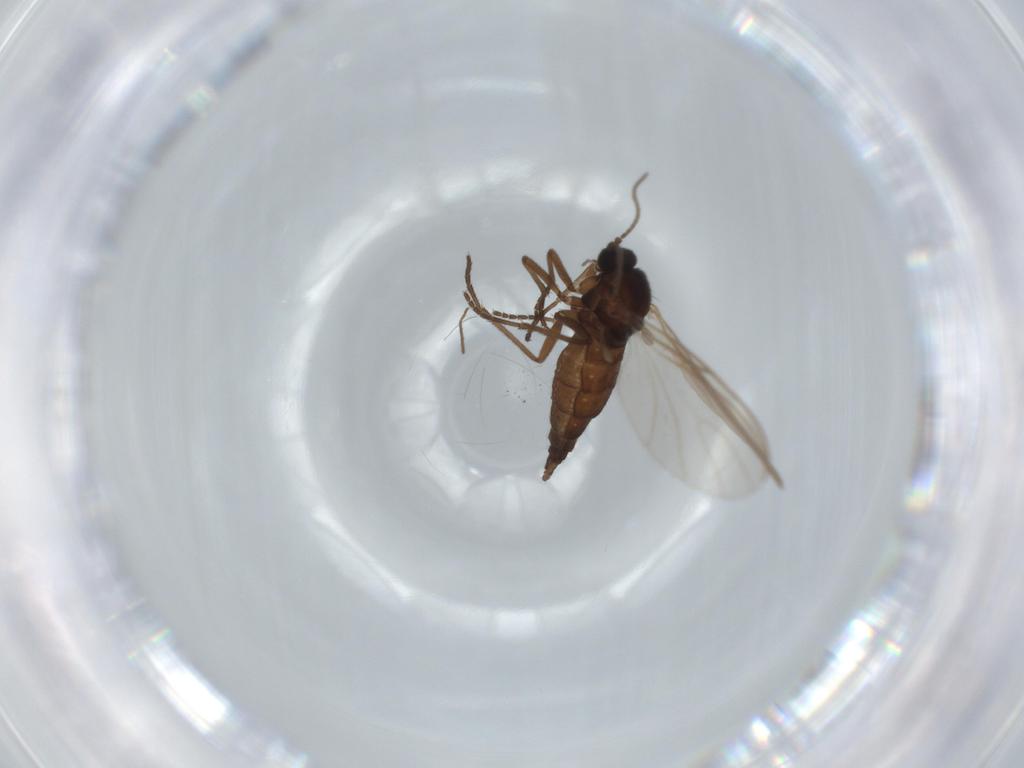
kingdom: Animalia
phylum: Arthropoda
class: Insecta
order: Diptera
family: Sciaridae
